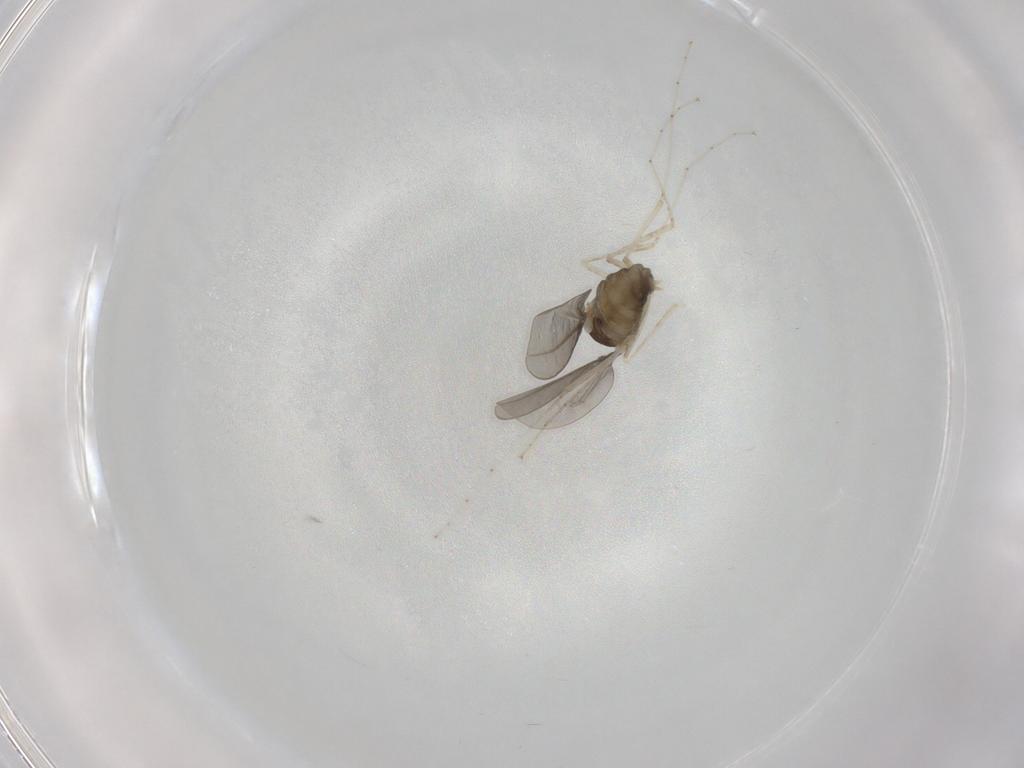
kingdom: Animalia
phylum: Arthropoda
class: Insecta
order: Diptera
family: Cecidomyiidae
